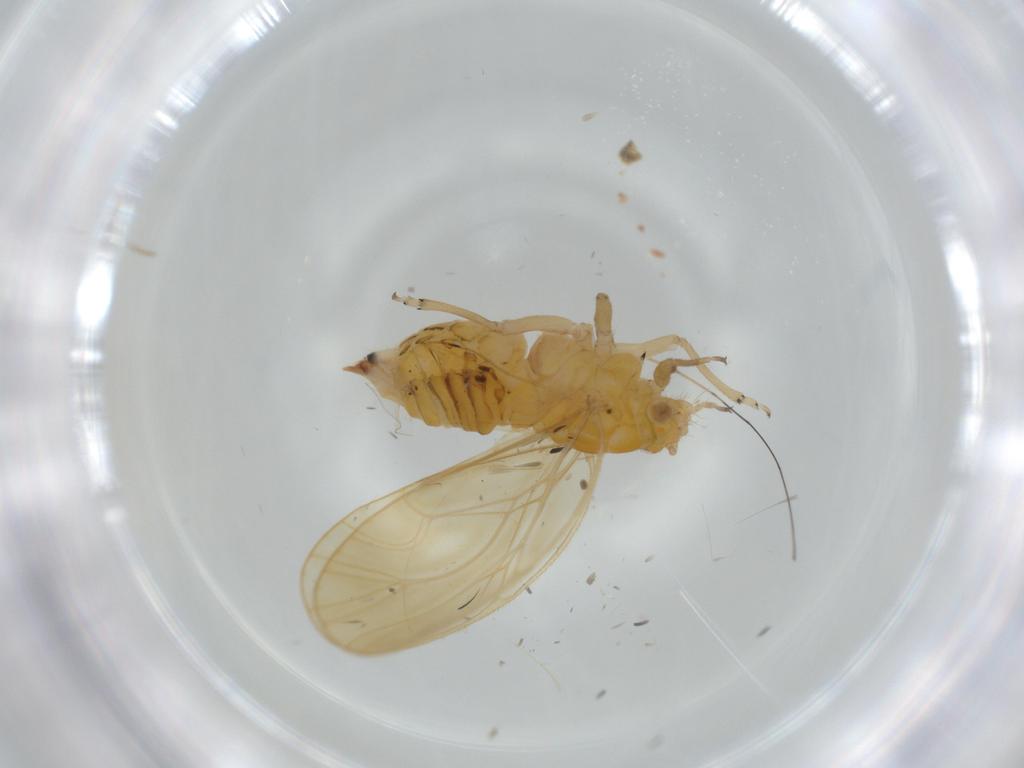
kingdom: Animalia
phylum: Arthropoda
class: Insecta
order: Hemiptera
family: Psyllidae
